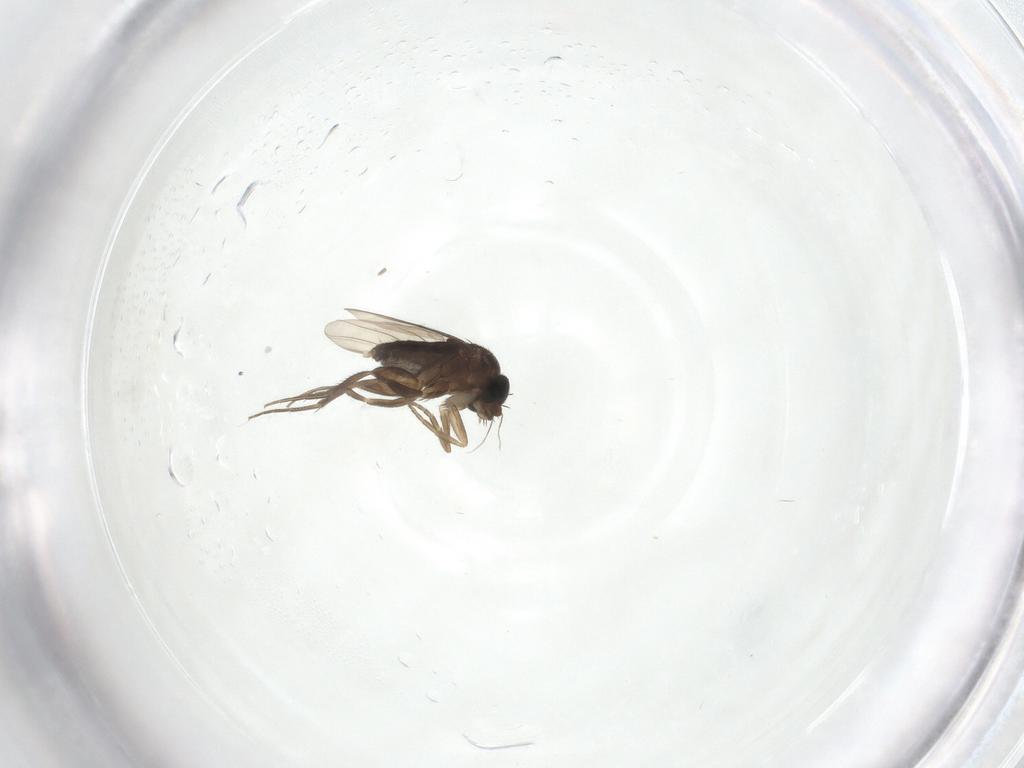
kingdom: Animalia
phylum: Arthropoda
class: Insecta
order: Diptera
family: Phoridae
